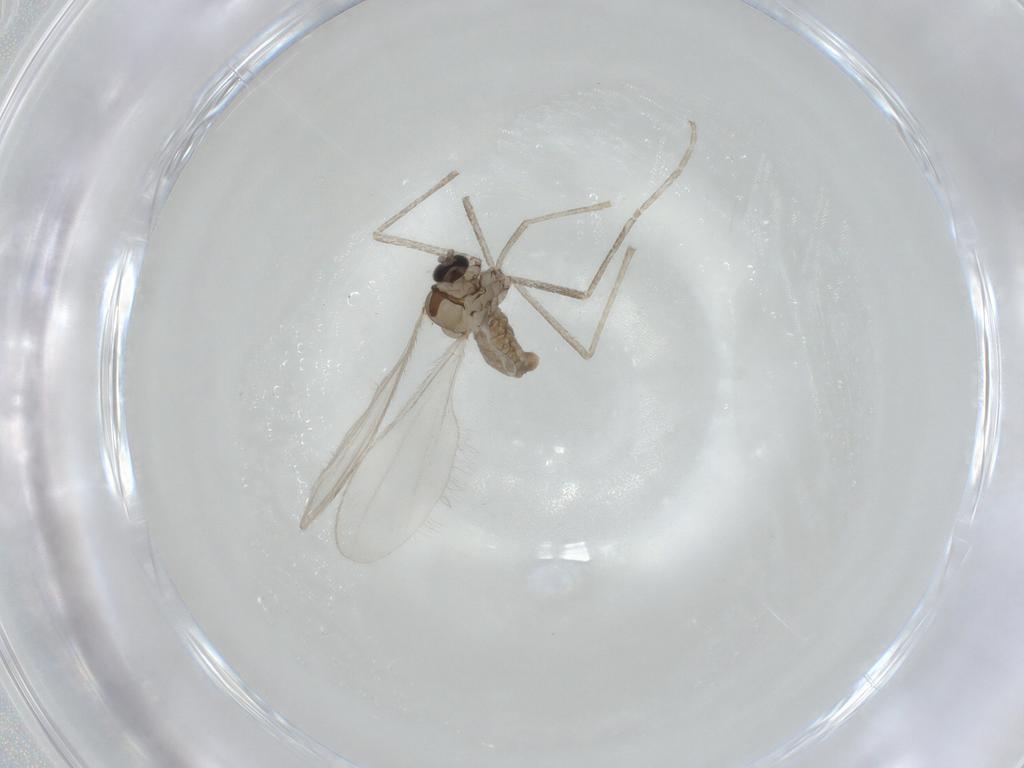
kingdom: Animalia
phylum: Arthropoda
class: Insecta
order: Diptera
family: Cecidomyiidae
